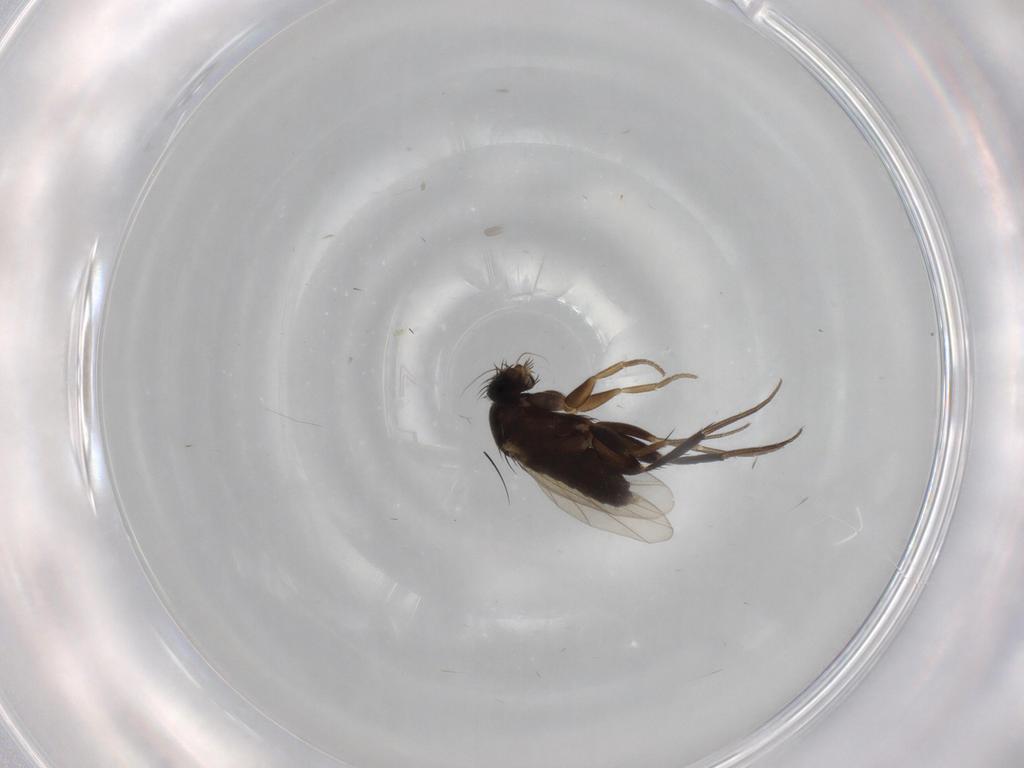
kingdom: Animalia
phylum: Arthropoda
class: Insecta
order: Diptera
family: Phoridae
